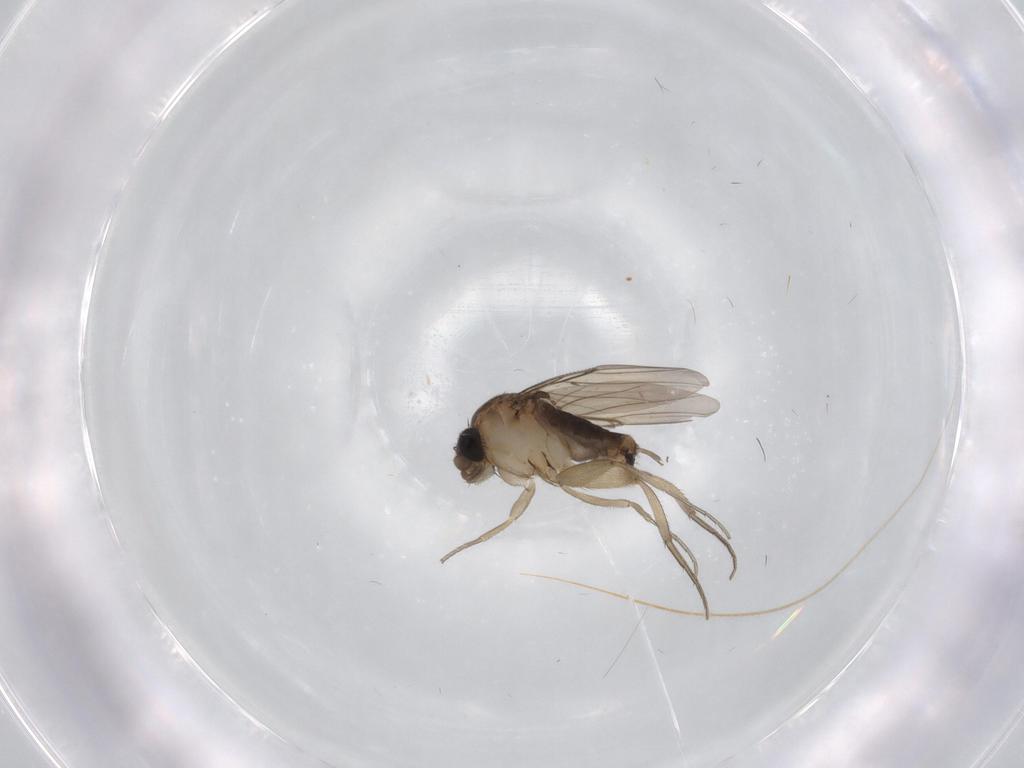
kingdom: Animalia
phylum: Arthropoda
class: Insecta
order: Diptera
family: Phoridae
